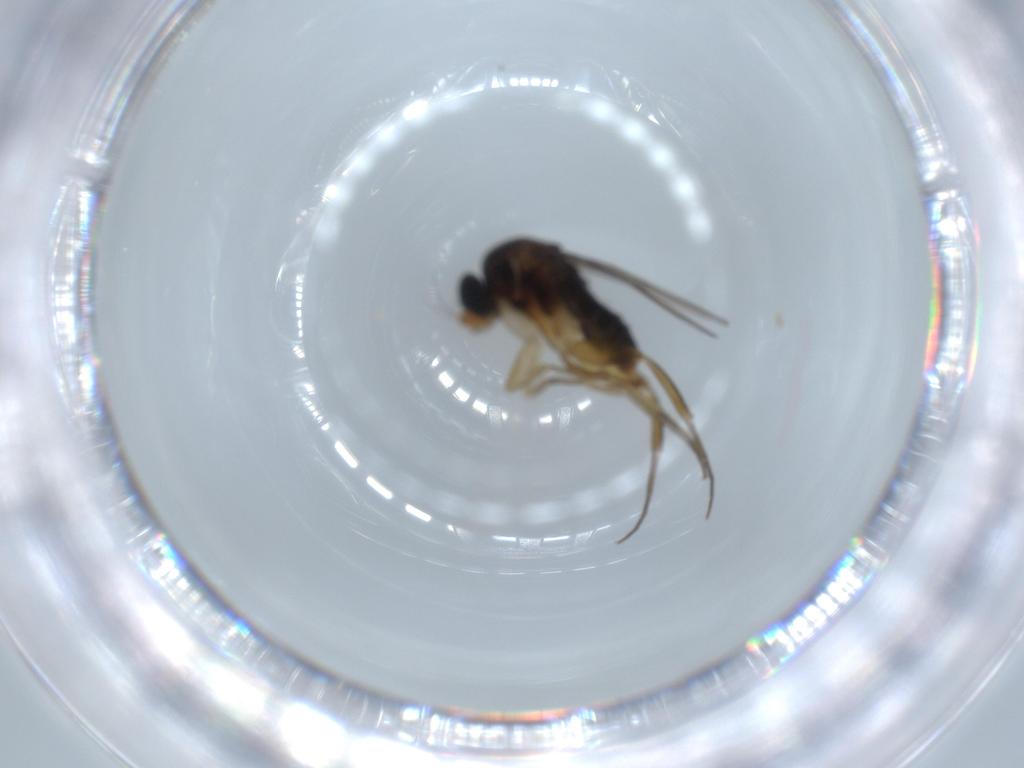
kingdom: Animalia
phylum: Arthropoda
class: Insecta
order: Diptera
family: Phoridae
